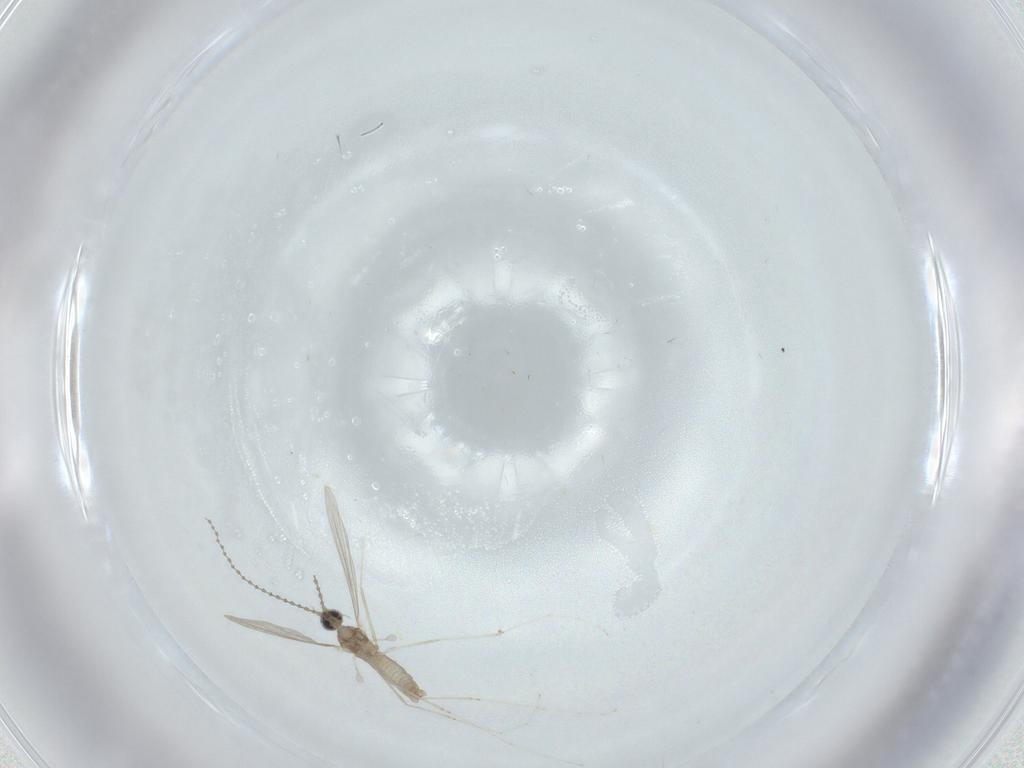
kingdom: Animalia
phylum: Arthropoda
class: Insecta
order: Diptera
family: Cecidomyiidae
